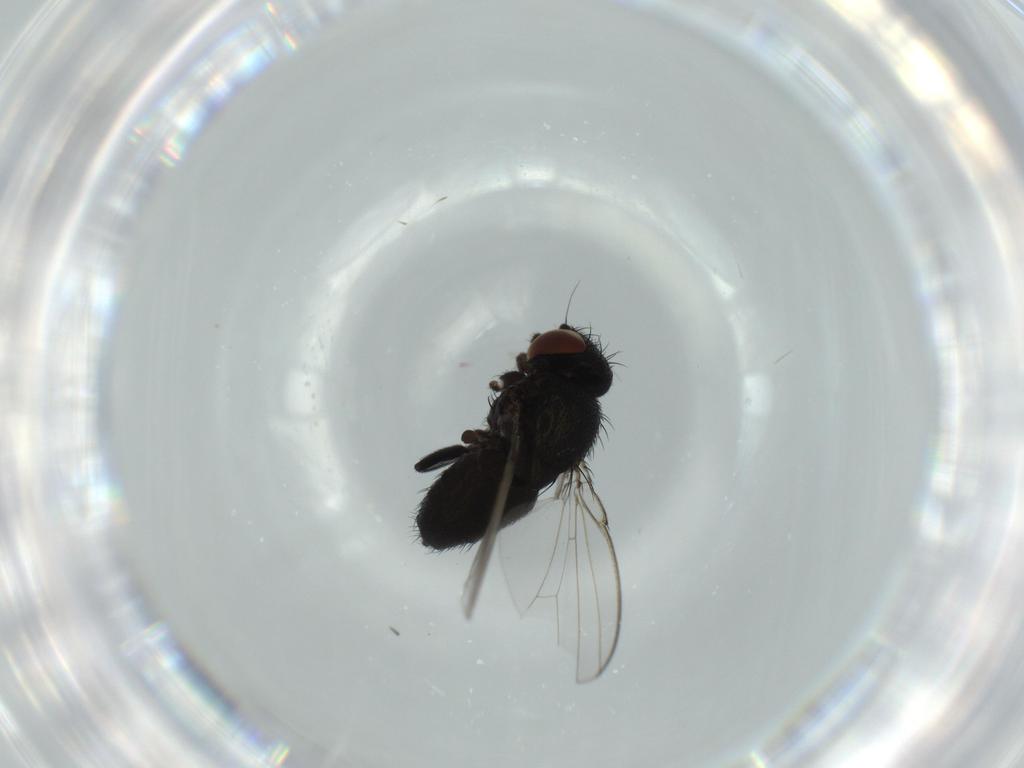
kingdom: Animalia
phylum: Arthropoda
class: Insecta
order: Diptera
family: Milichiidae
